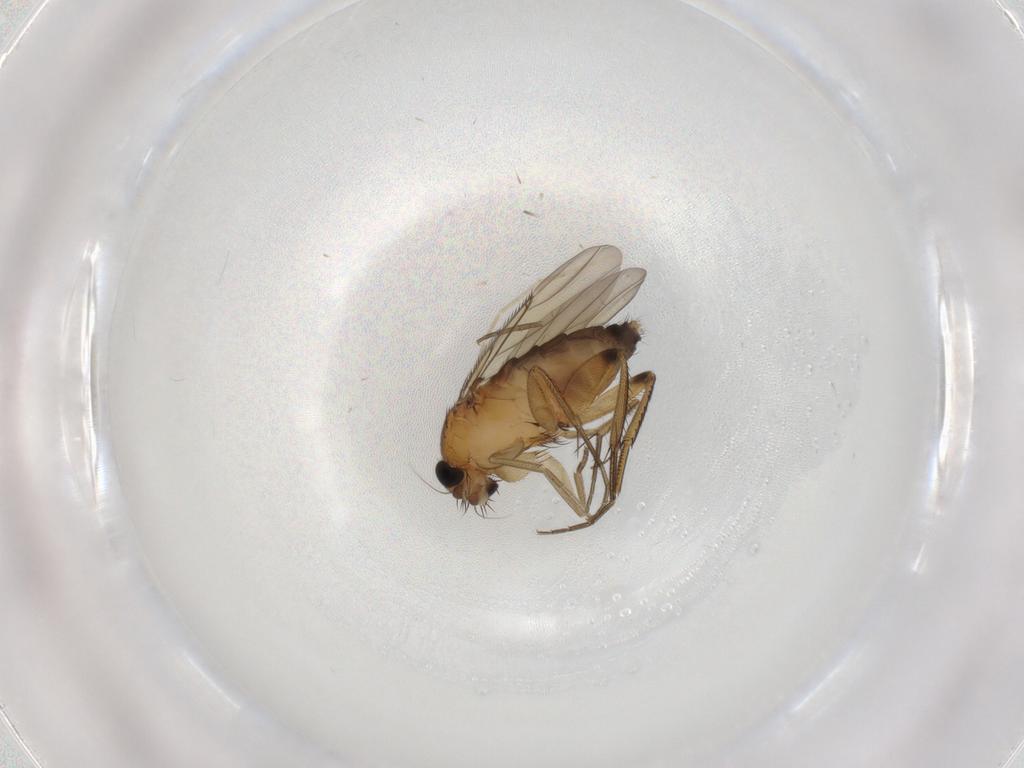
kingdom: Animalia
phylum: Arthropoda
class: Insecta
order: Diptera
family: Phoridae
